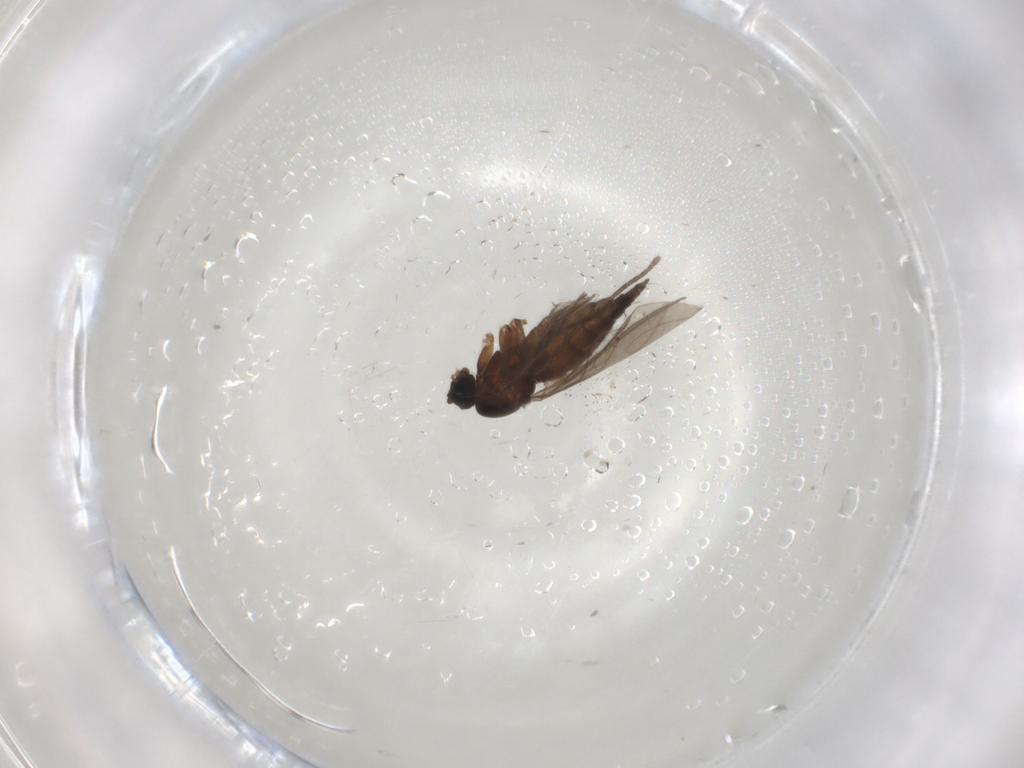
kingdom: Animalia
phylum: Arthropoda
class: Insecta
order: Diptera
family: Sciaridae
